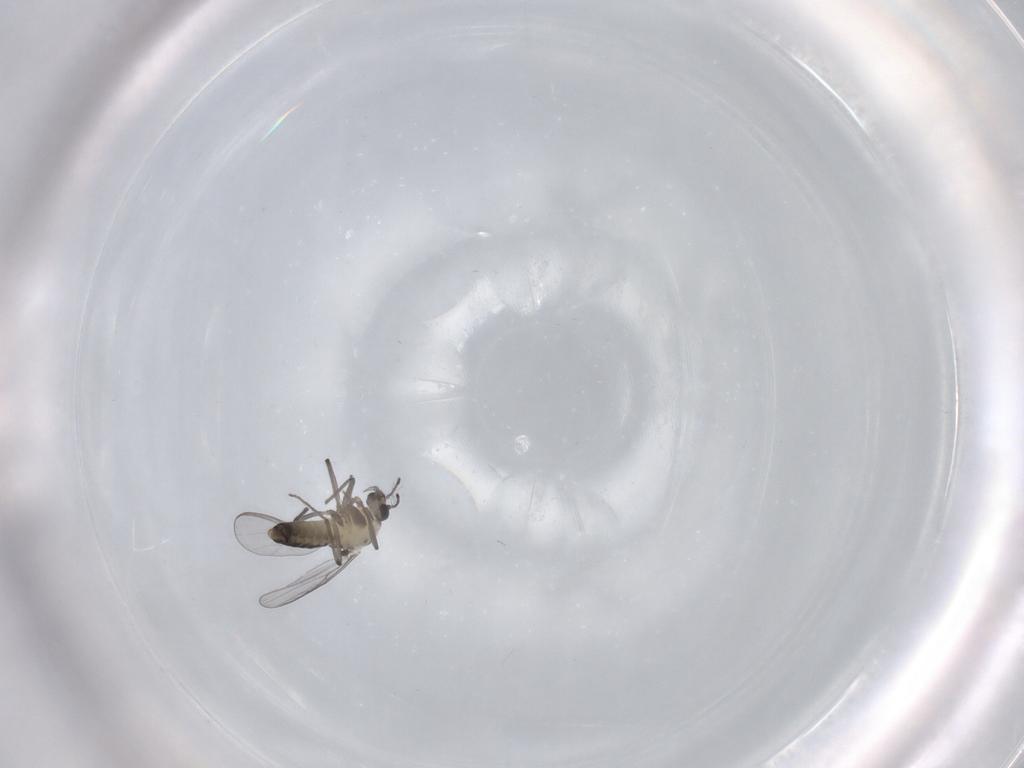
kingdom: Animalia
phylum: Arthropoda
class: Insecta
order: Diptera
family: Chironomidae
